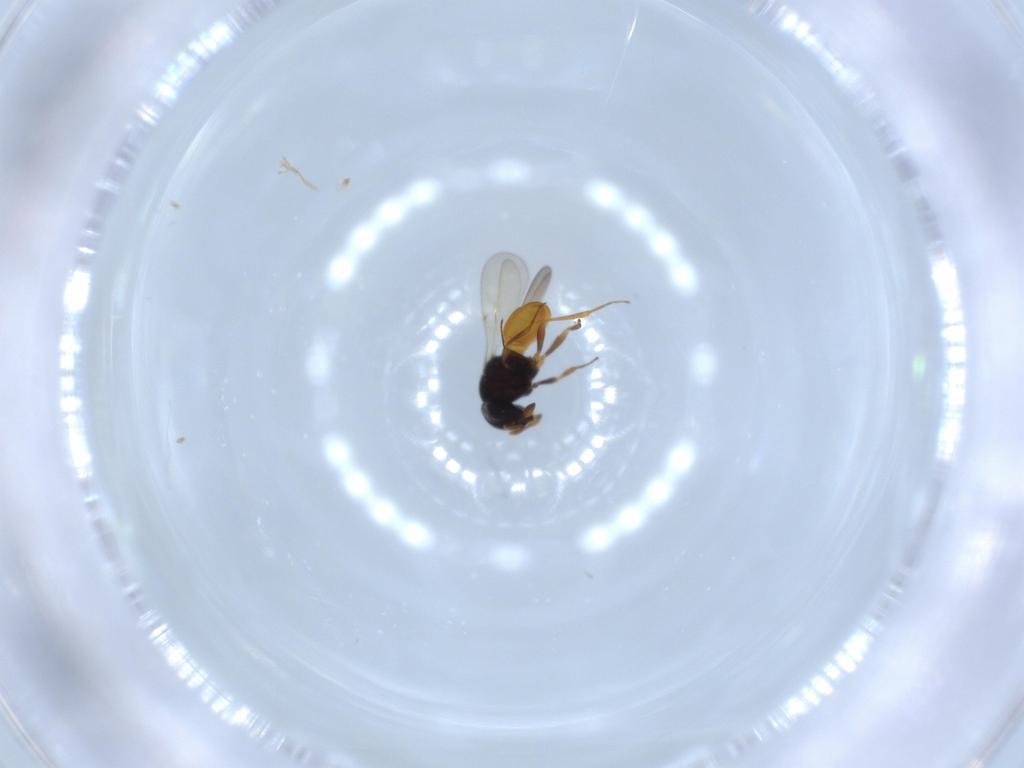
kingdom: Animalia
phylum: Arthropoda
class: Insecta
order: Hymenoptera
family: Scelionidae
